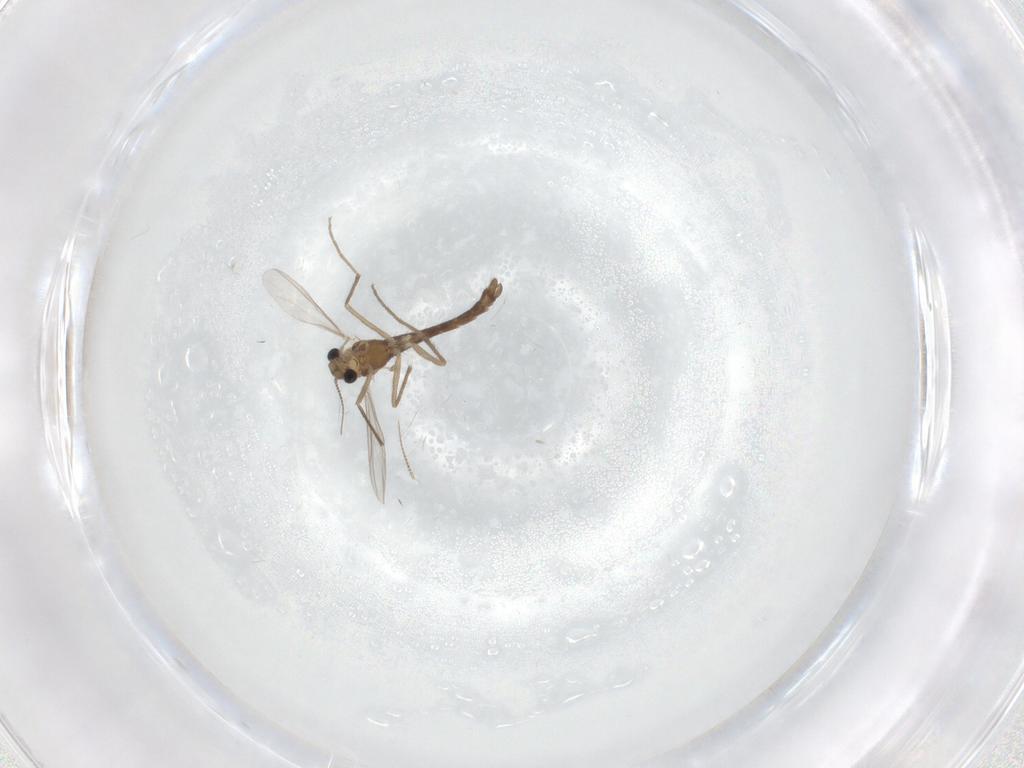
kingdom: Animalia
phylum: Arthropoda
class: Insecta
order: Diptera
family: Chironomidae
